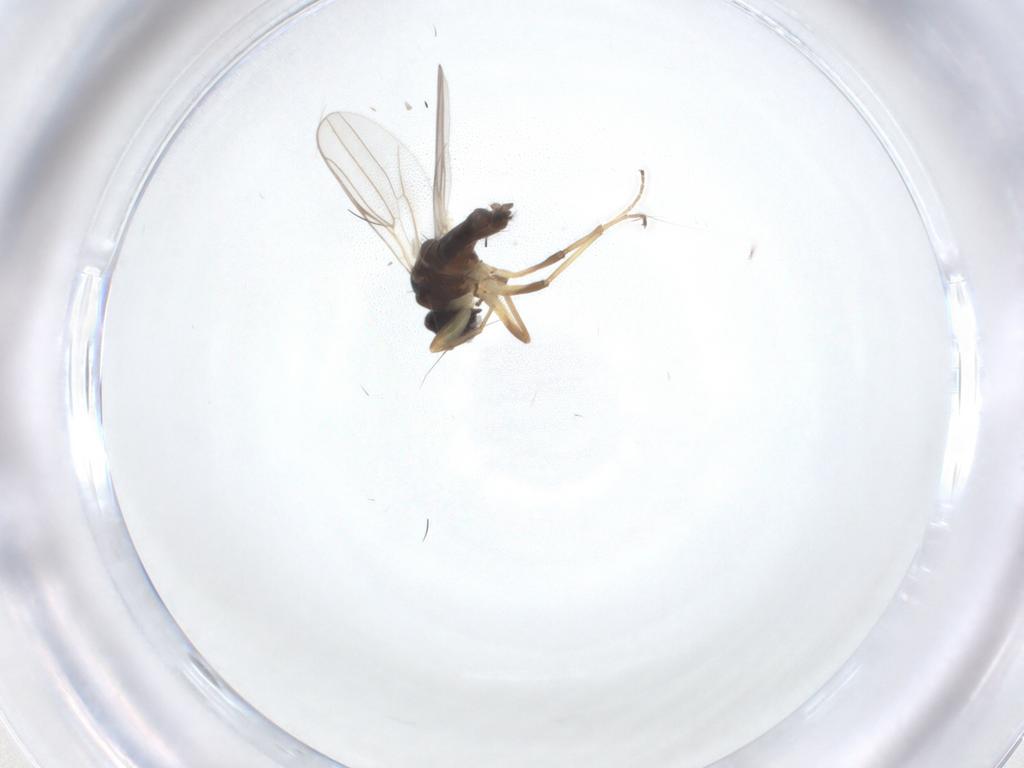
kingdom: Animalia
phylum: Arthropoda
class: Insecta
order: Diptera
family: Hybotidae
